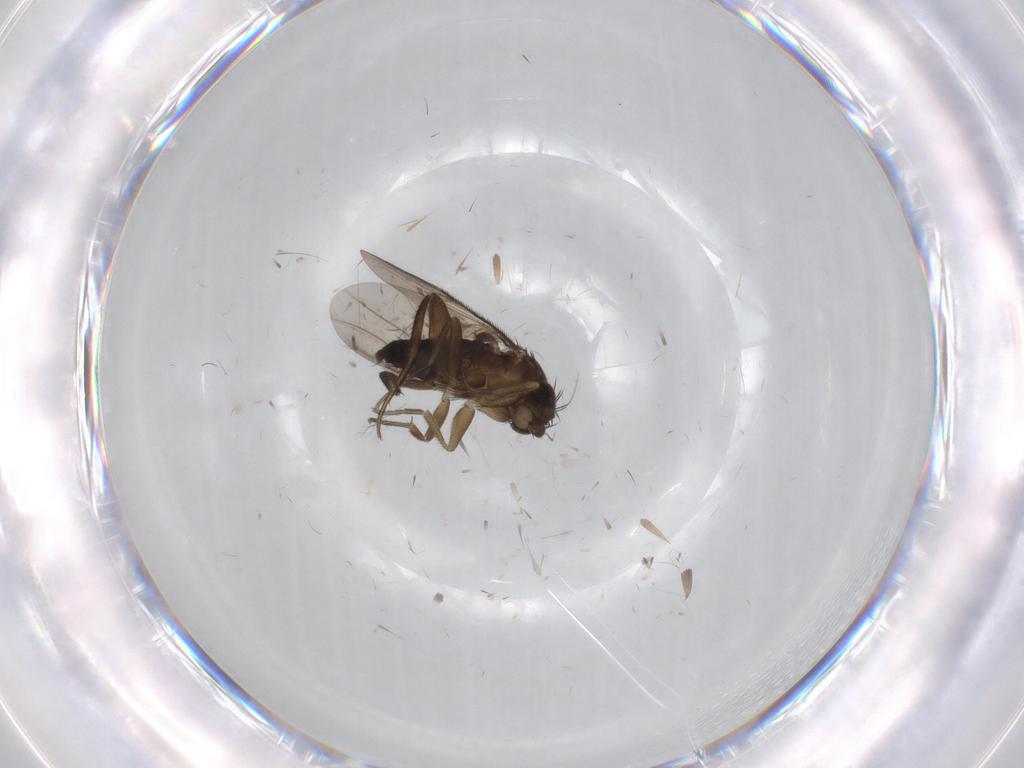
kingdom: Animalia
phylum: Arthropoda
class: Insecta
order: Diptera
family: Phoridae
